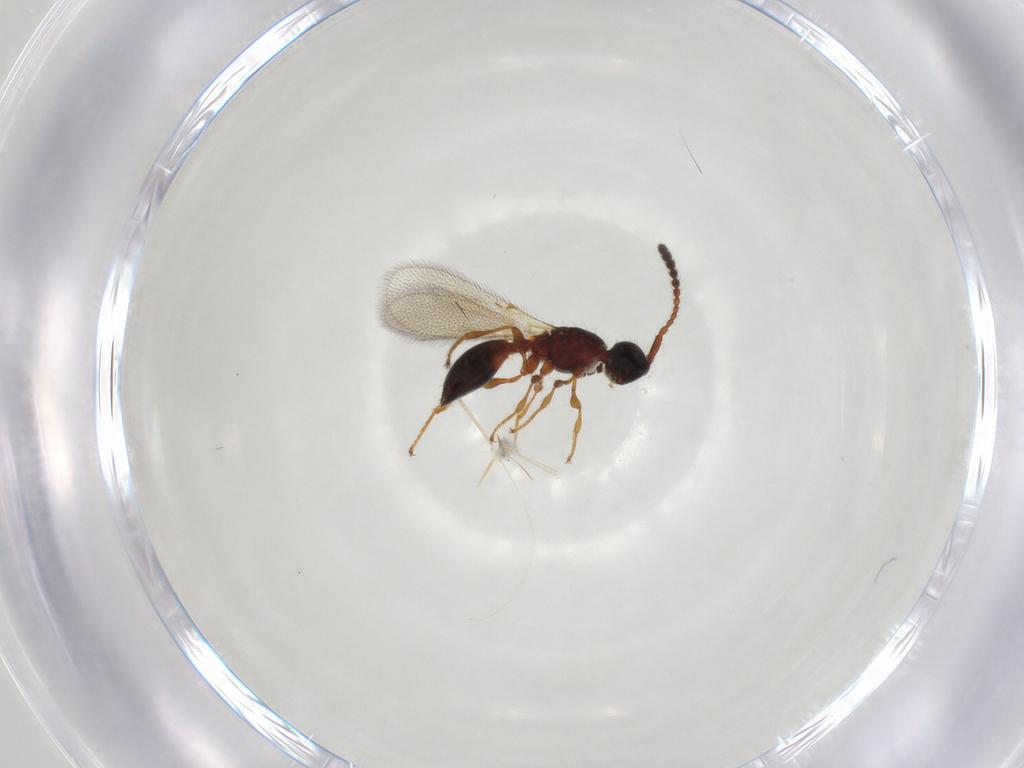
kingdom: Animalia
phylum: Arthropoda
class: Insecta
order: Hymenoptera
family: Diapriidae
